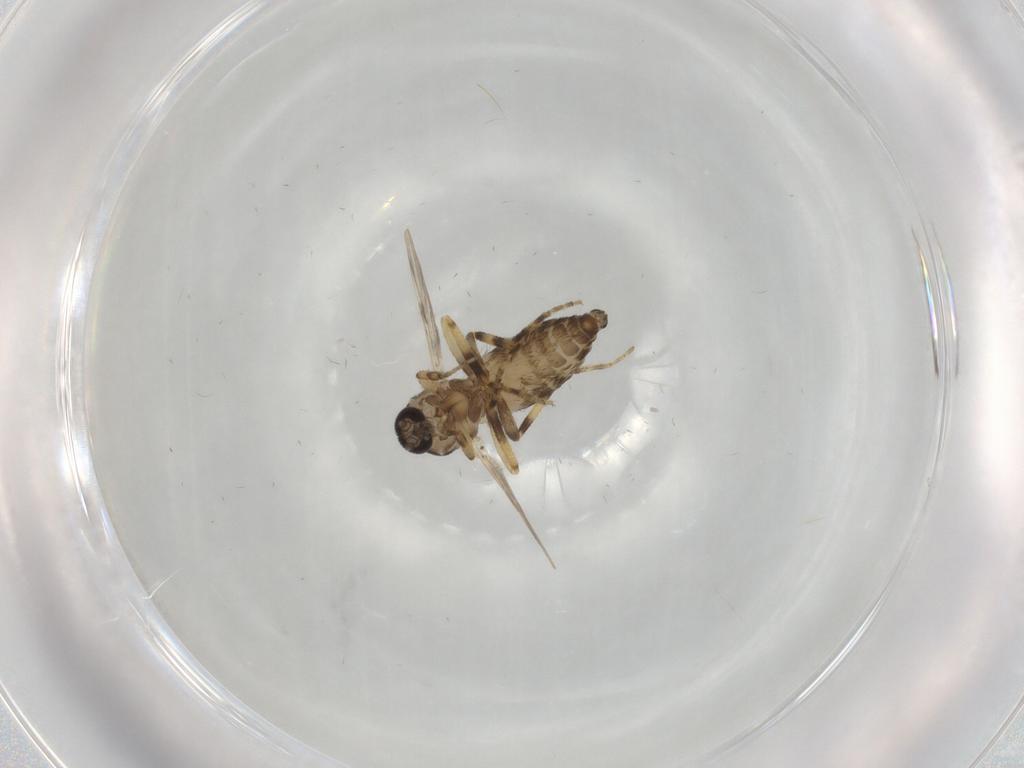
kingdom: Animalia
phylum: Arthropoda
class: Insecta
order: Diptera
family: Ceratopogonidae
